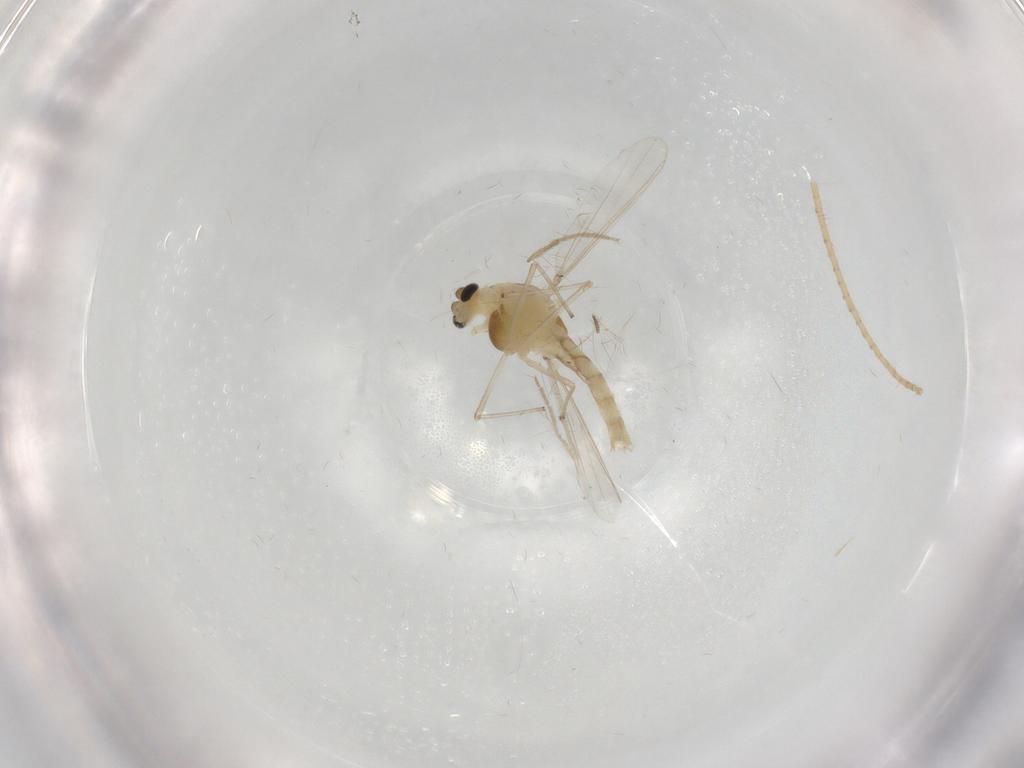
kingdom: Animalia
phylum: Arthropoda
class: Insecta
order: Diptera
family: Chironomidae
